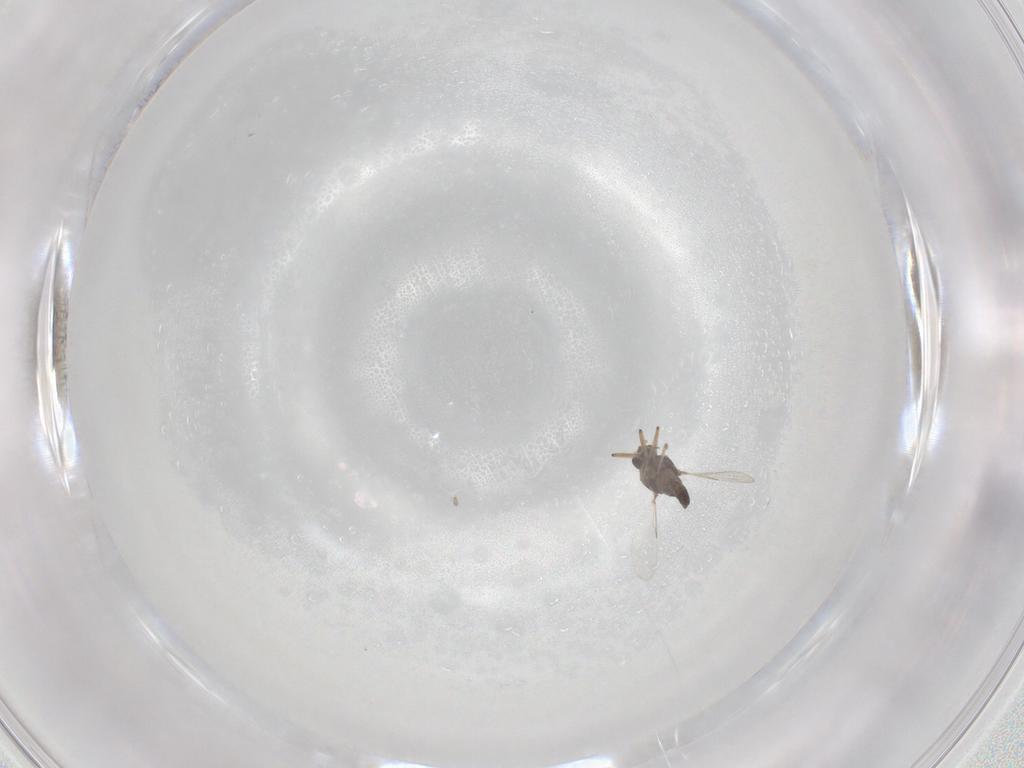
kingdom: Animalia
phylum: Arthropoda
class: Insecta
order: Diptera
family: Ceratopogonidae
